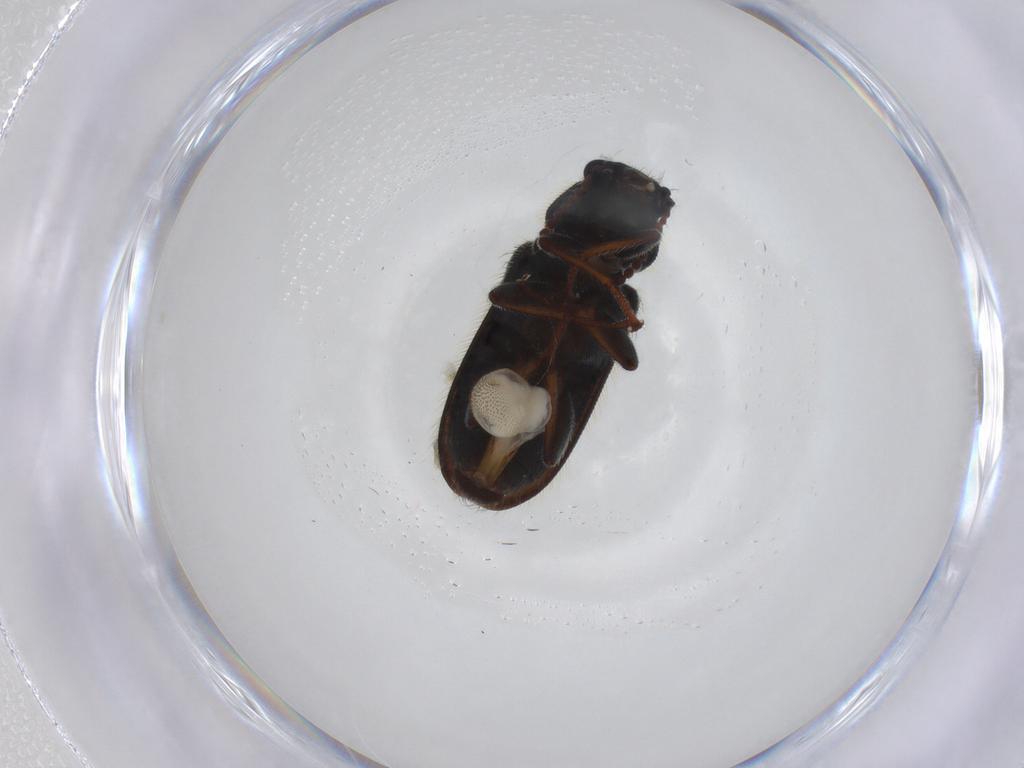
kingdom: Animalia
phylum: Arthropoda
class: Insecta
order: Coleoptera
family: Melyridae
